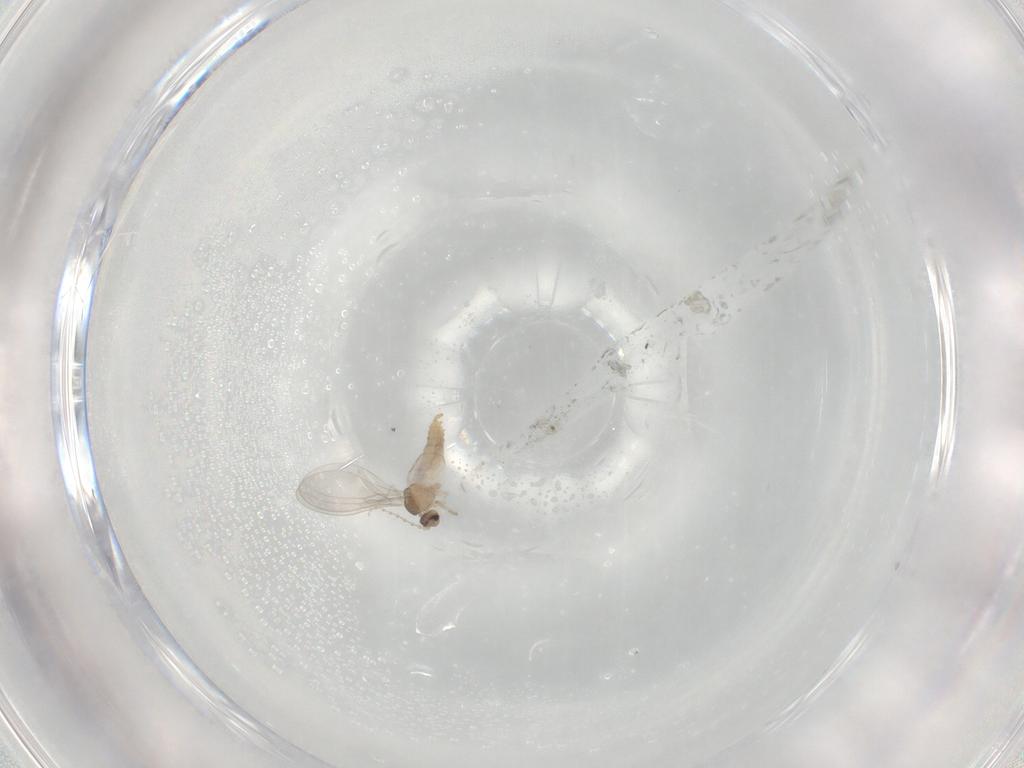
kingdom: Animalia
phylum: Arthropoda
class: Insecta
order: Diptera
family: Cecidomyiidae
